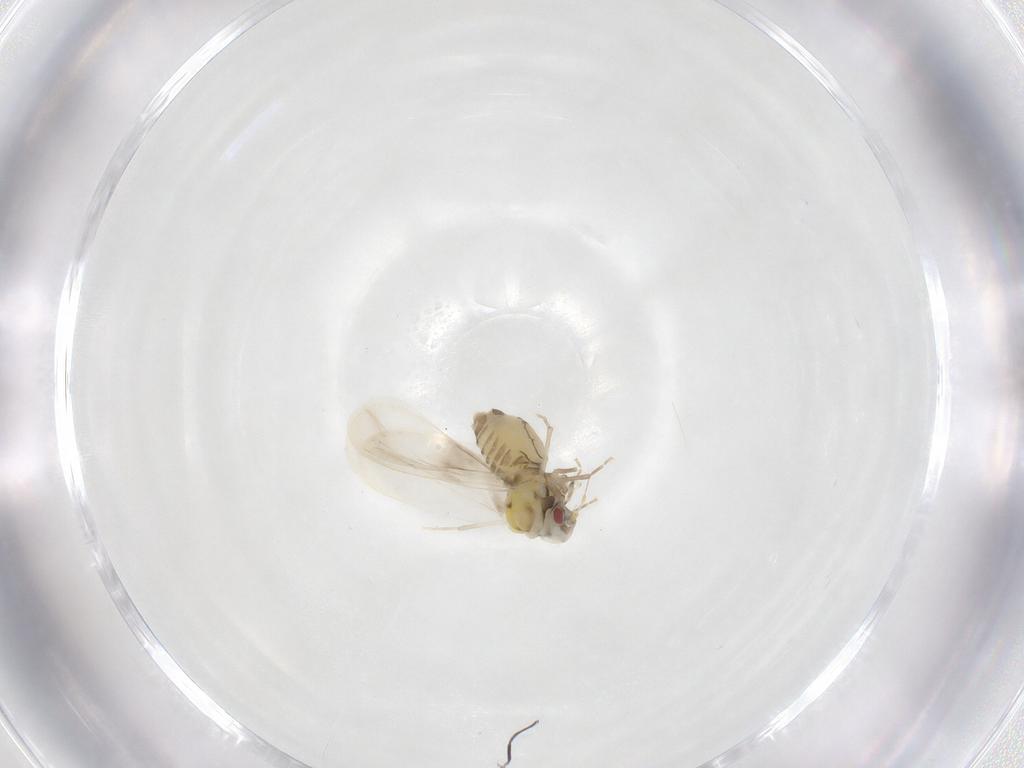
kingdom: Animalia
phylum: Arthropoda
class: Insecta
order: Hemiptera
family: Aleyrodidae
